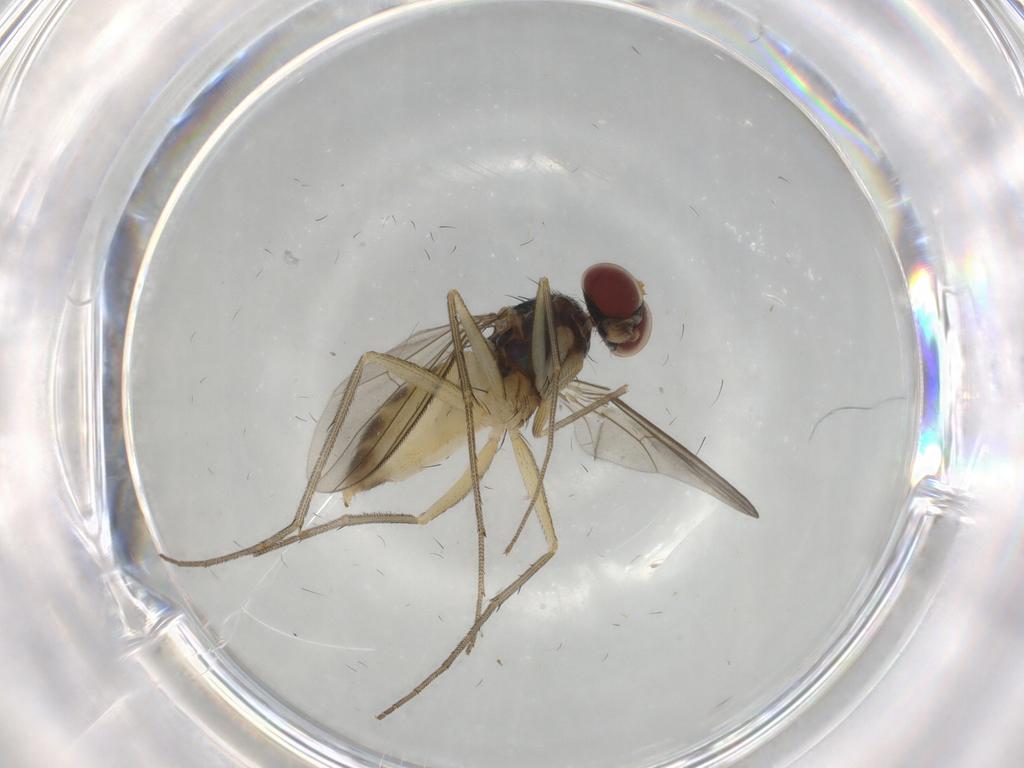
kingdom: Animalia
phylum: Arthropoda
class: Insecta
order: Diptera
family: Dolichopodidae
